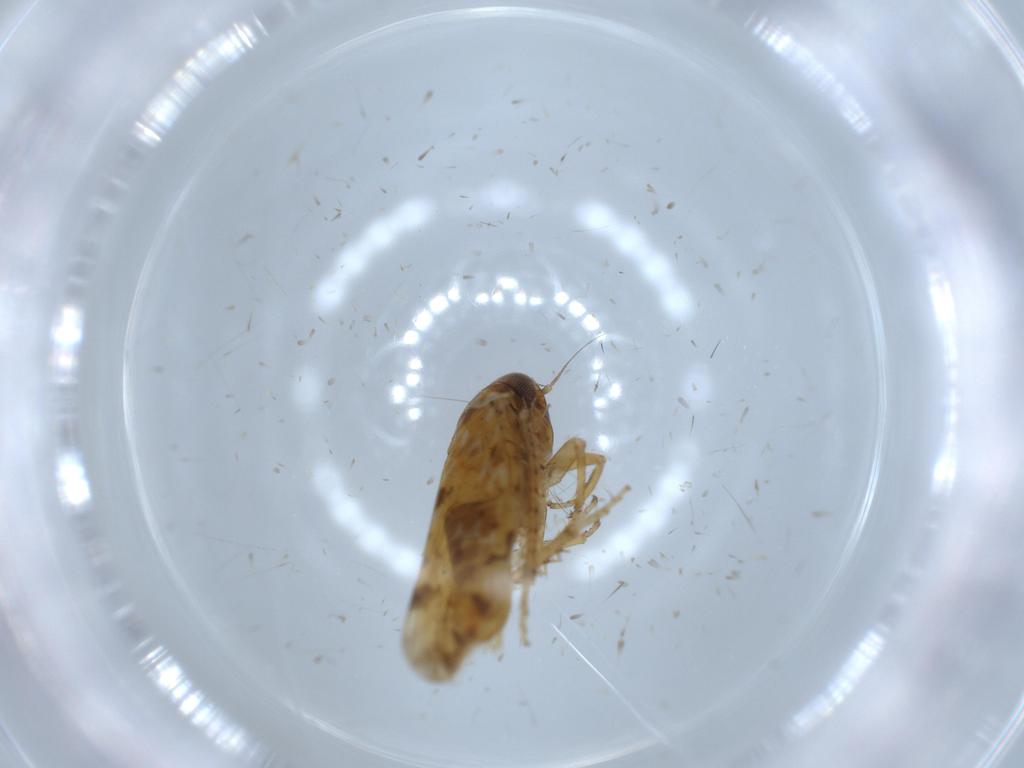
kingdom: Animalia
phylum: Arthropoda
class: Insecta
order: Hemiptera
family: Cicadellidae
